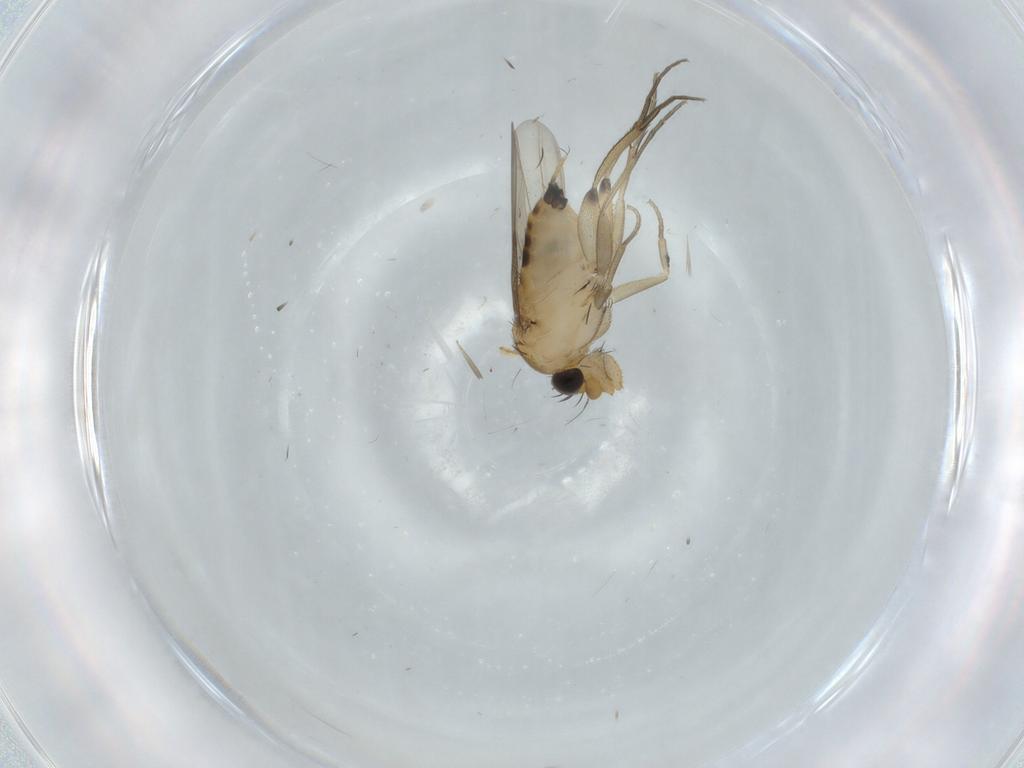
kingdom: Animalia
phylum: Arthropoda
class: Insecta
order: Diptera
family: Phoridae
